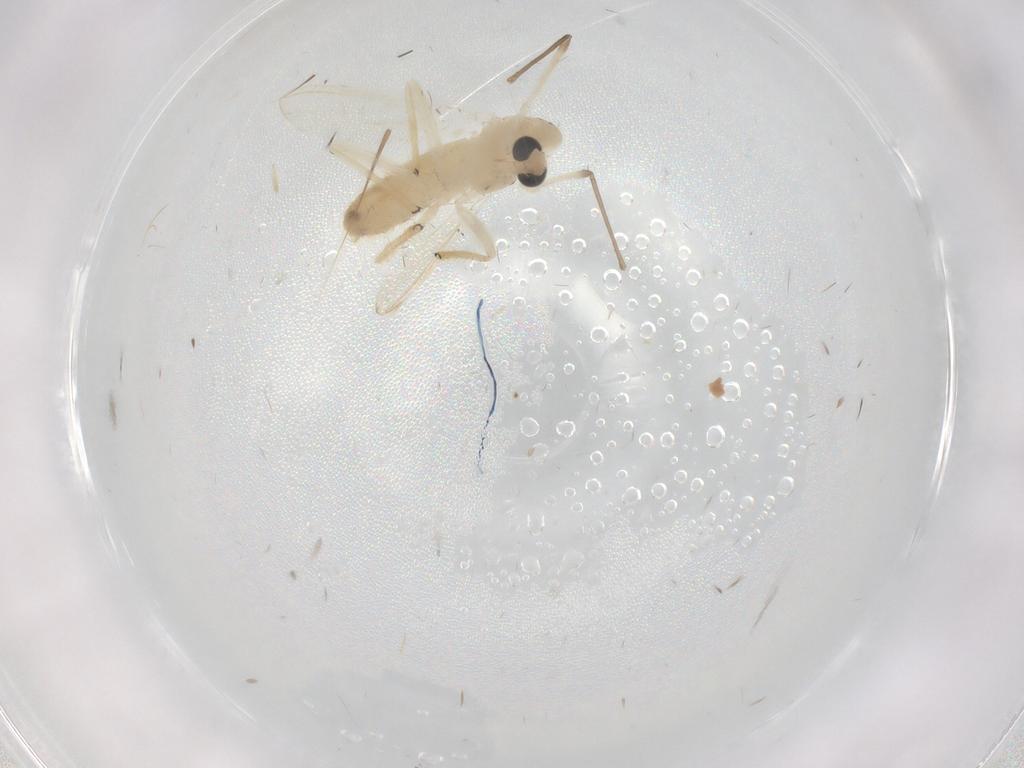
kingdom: Animalia
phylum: Arthropoda
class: Insecta
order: Diptera
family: Chironomidae
